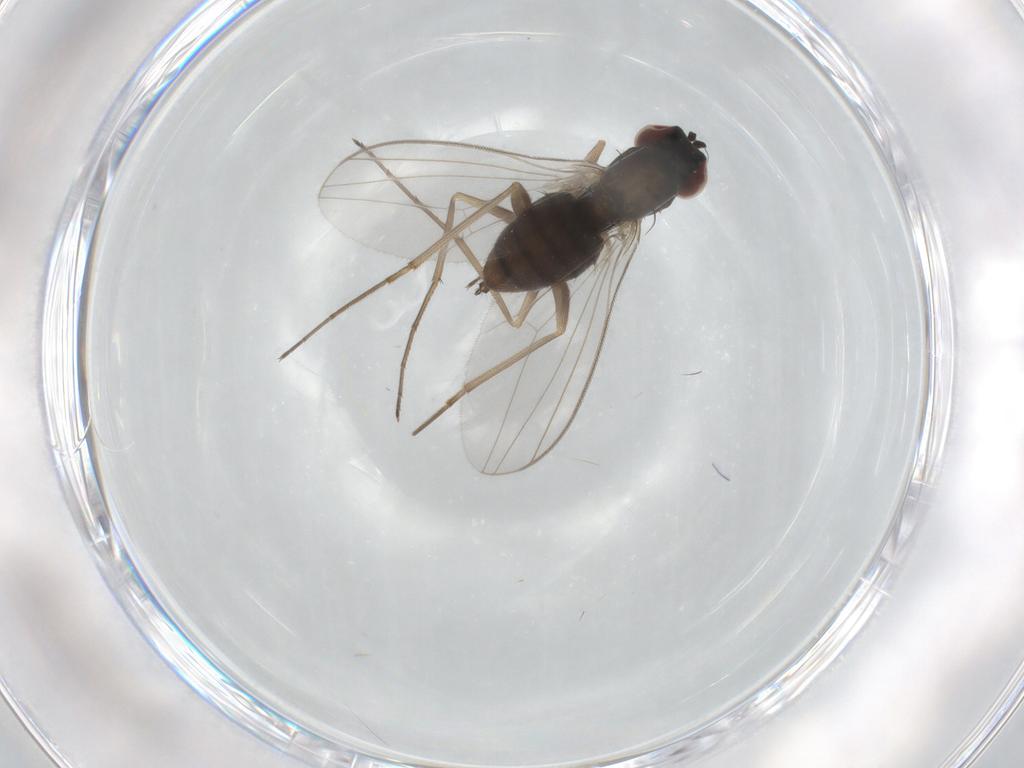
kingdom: Animalia
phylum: Arthropoda
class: Insecta
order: Diptera
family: Dolichopodidae
